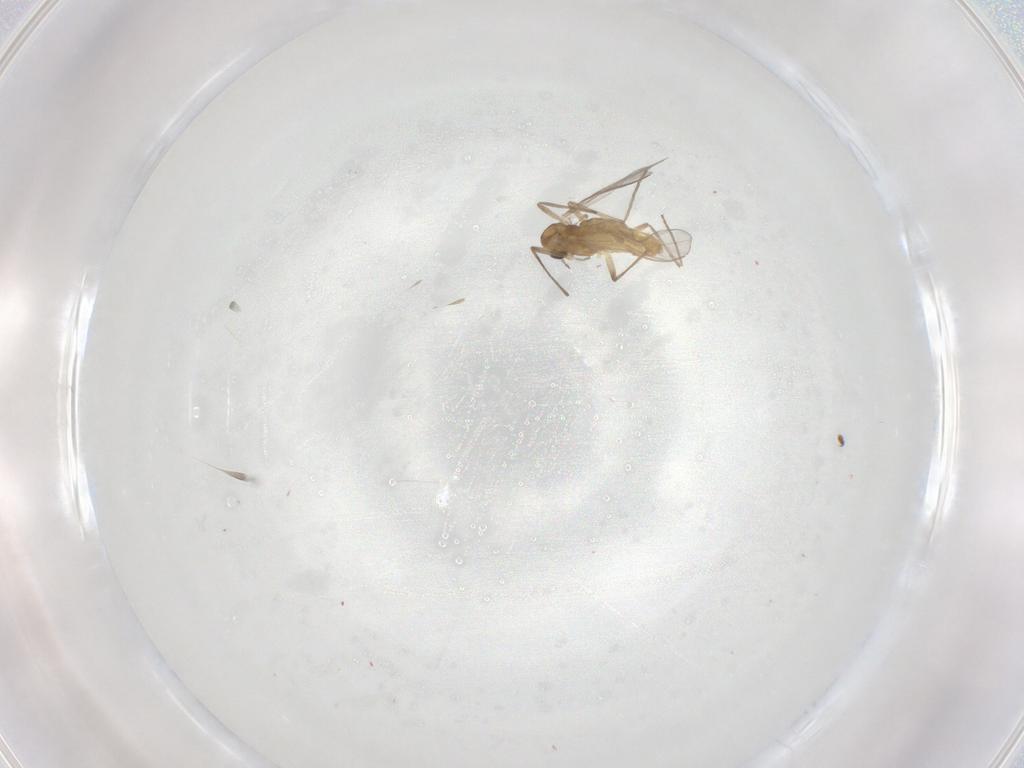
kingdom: Animalia
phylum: Arthropoda
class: Insecta
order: Diptera
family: Chironomidae
